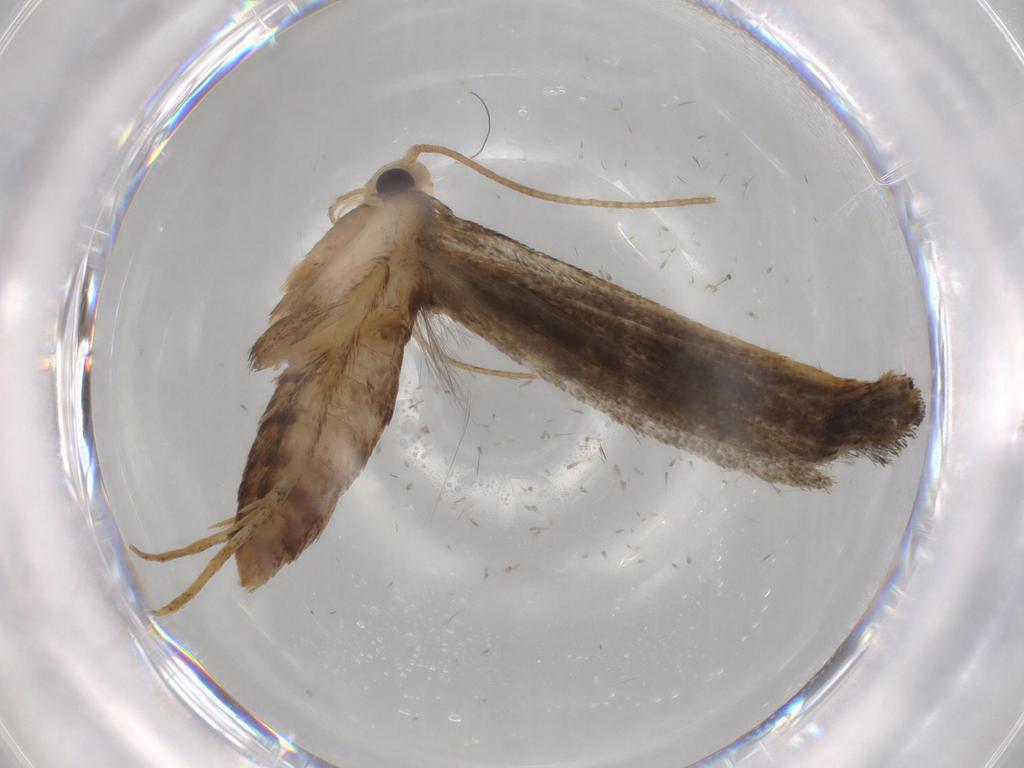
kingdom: Animalia
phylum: Arthropoda
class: Insecta
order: Lepidoptera
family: Batrachedridae
